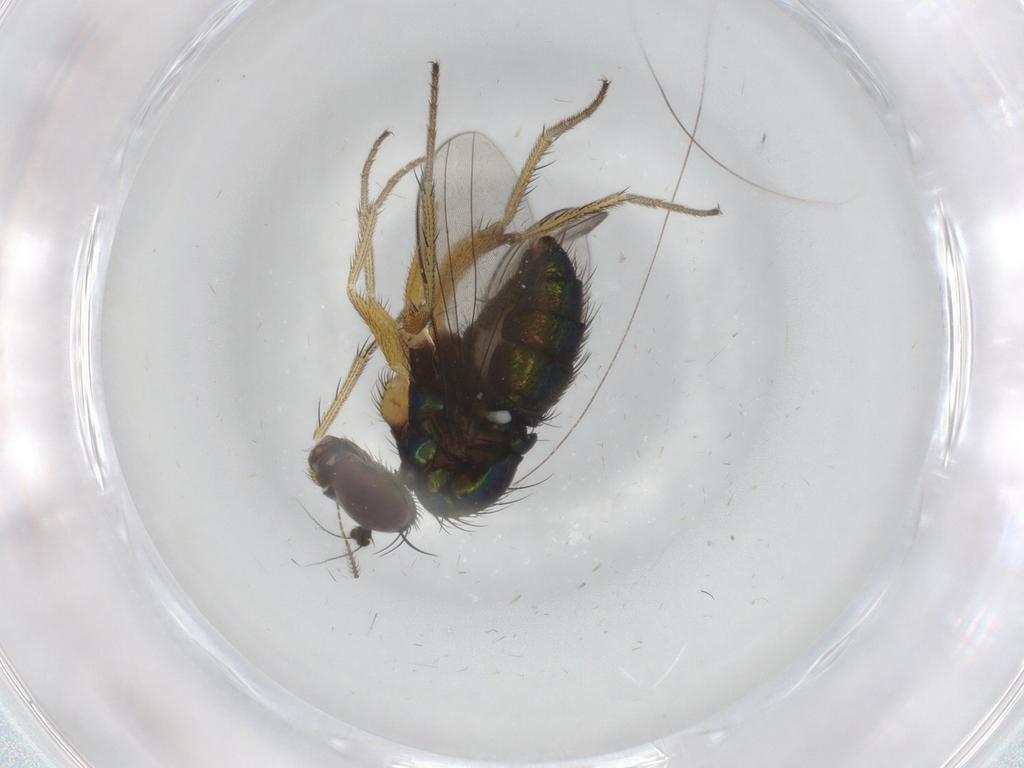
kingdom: Animalia
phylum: Arthropoda
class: Insecta
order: Diptera
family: Dolichopodidae
